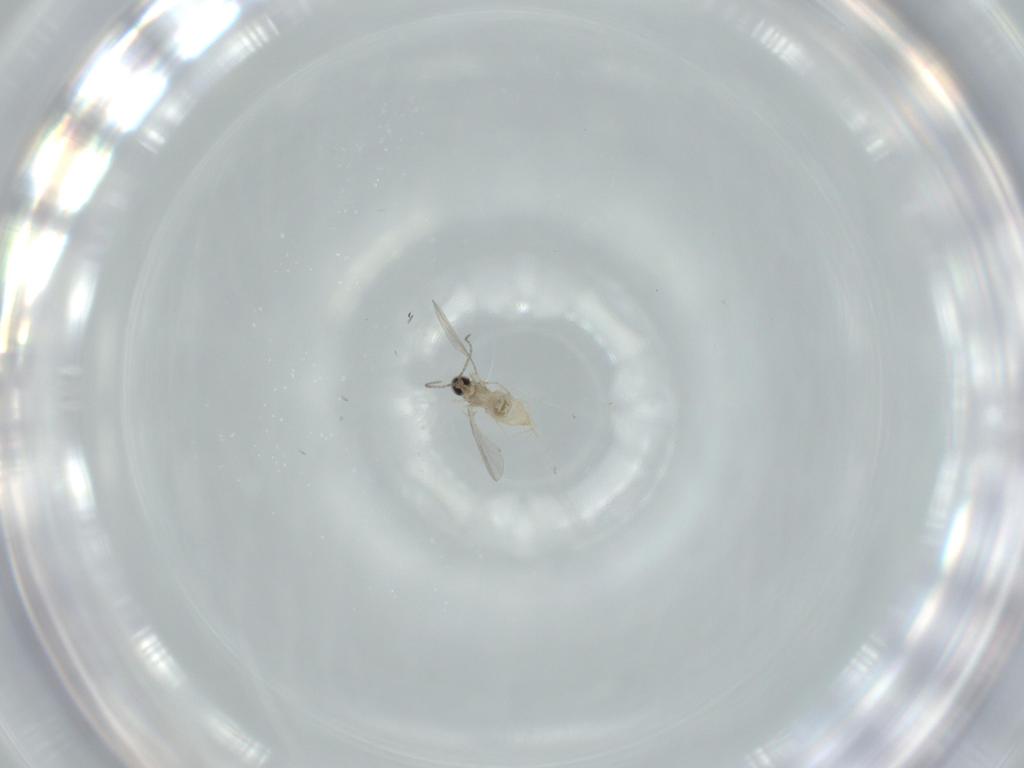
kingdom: Animalia
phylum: Arthropoda
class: Insecta
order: Diptera
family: Cecidomyiidae
